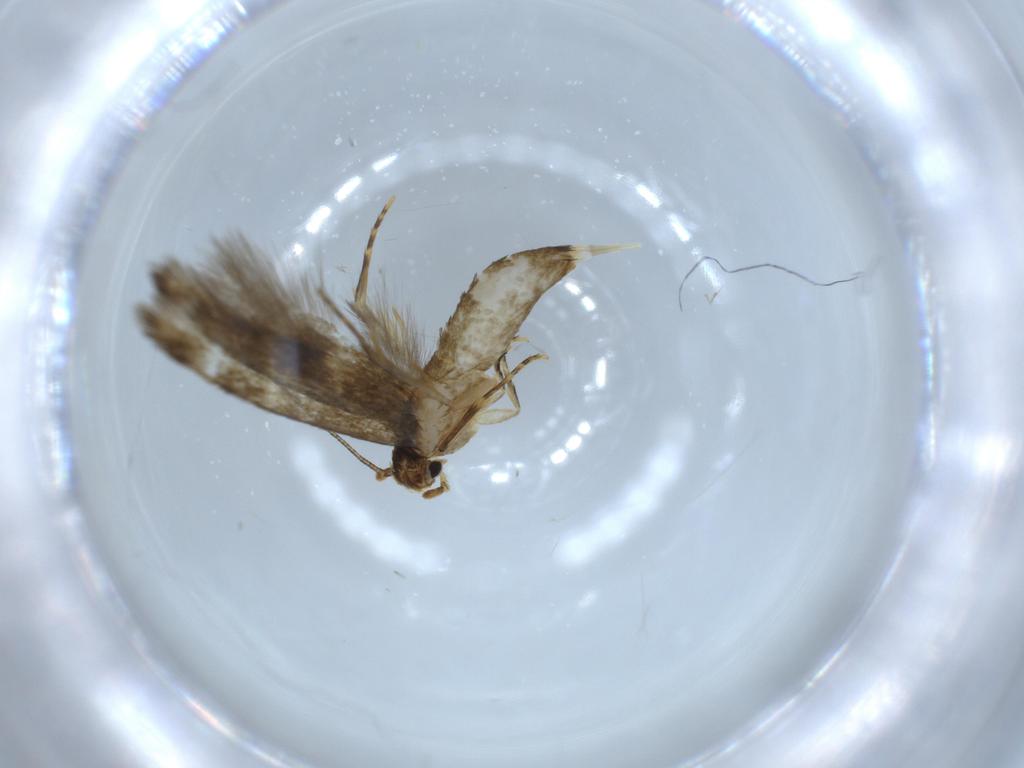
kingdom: Animalia
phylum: Arthropoda
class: Insecta
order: Lepidoptera
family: Tineidae
